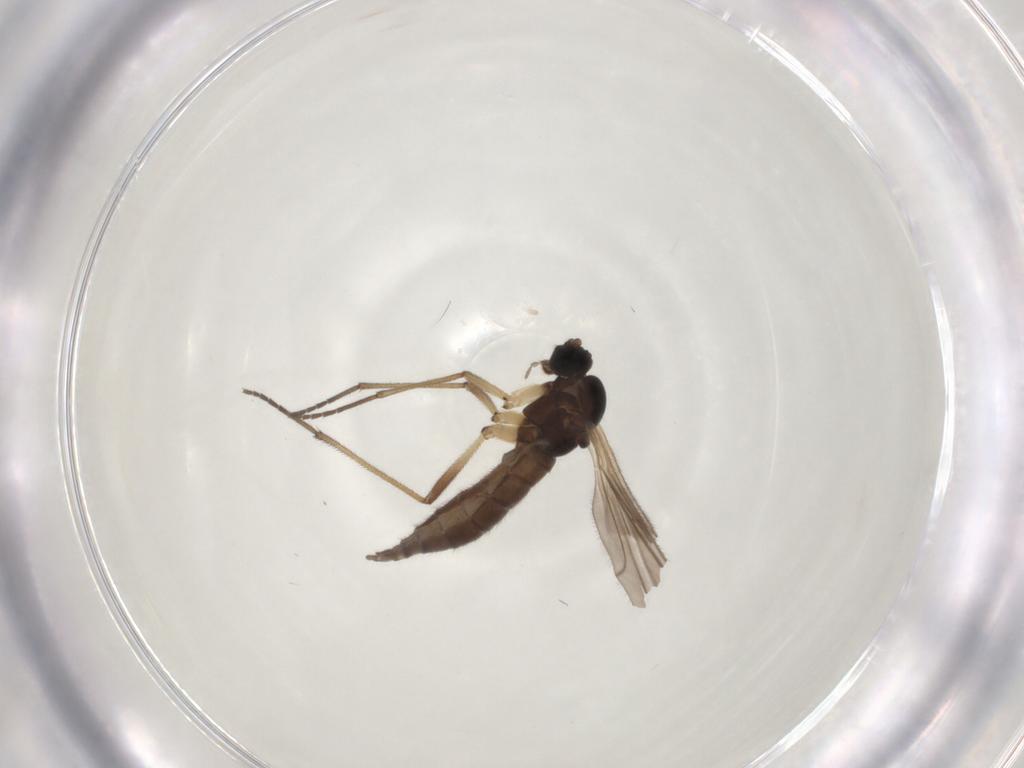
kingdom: Animalia
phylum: Arthropoda
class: Insecta
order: Diptera
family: Sciaridae
